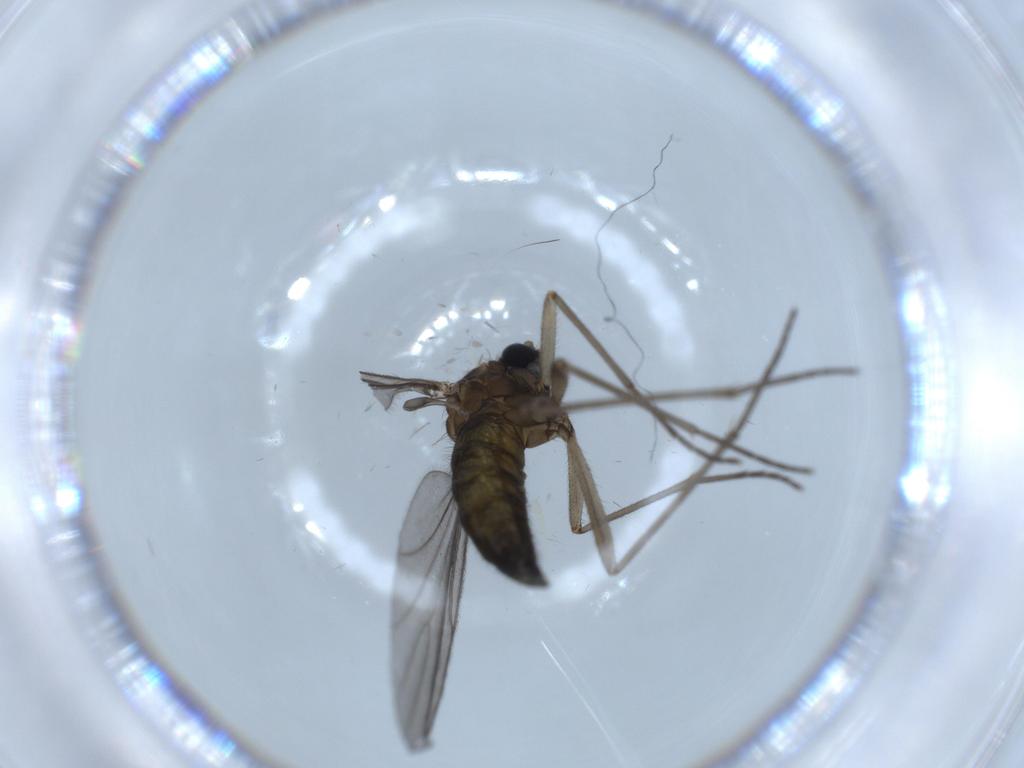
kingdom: Animalia
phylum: Arthropoda
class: Insecta
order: Diptera
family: Sciaridae
